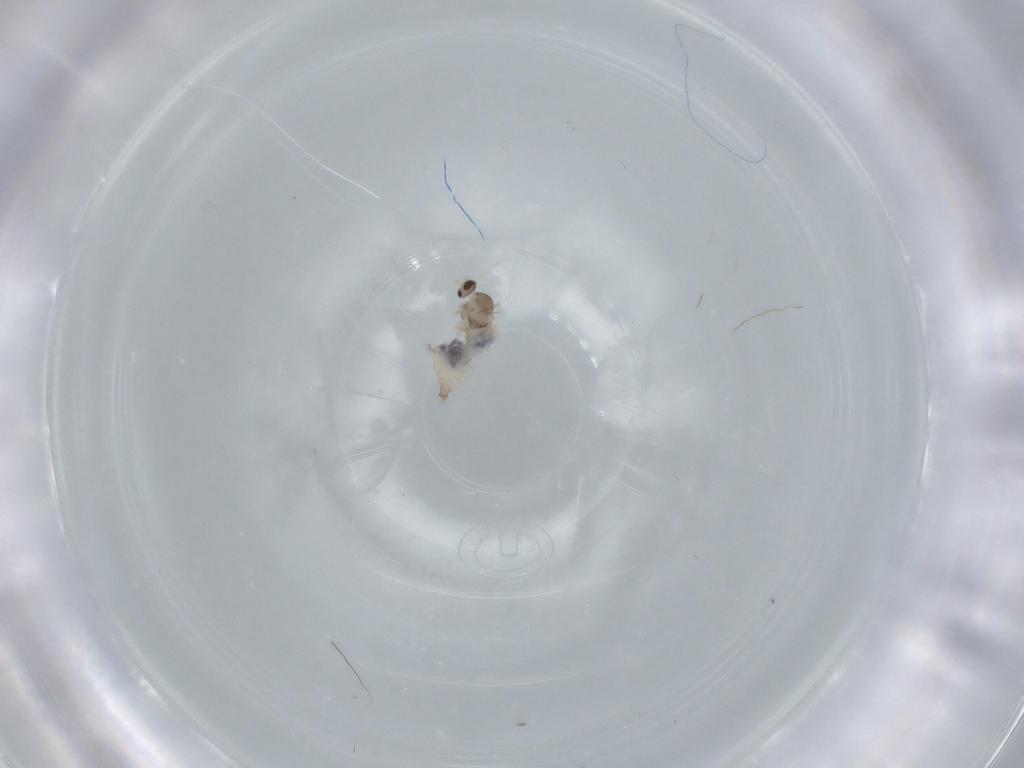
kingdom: Animalia
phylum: Arthropoda
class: Insecta
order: Diptera
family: Cecidomyiidae
